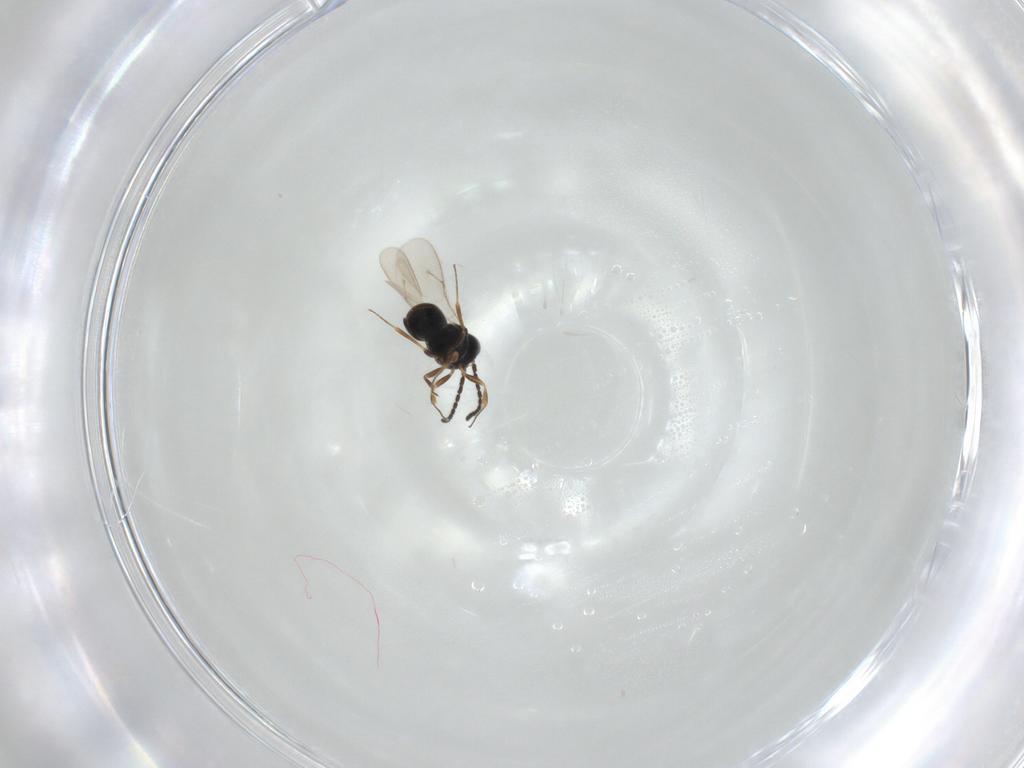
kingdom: Animalia
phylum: Arthropoda
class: Insecta
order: Hymenoptera
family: Scelionidae
